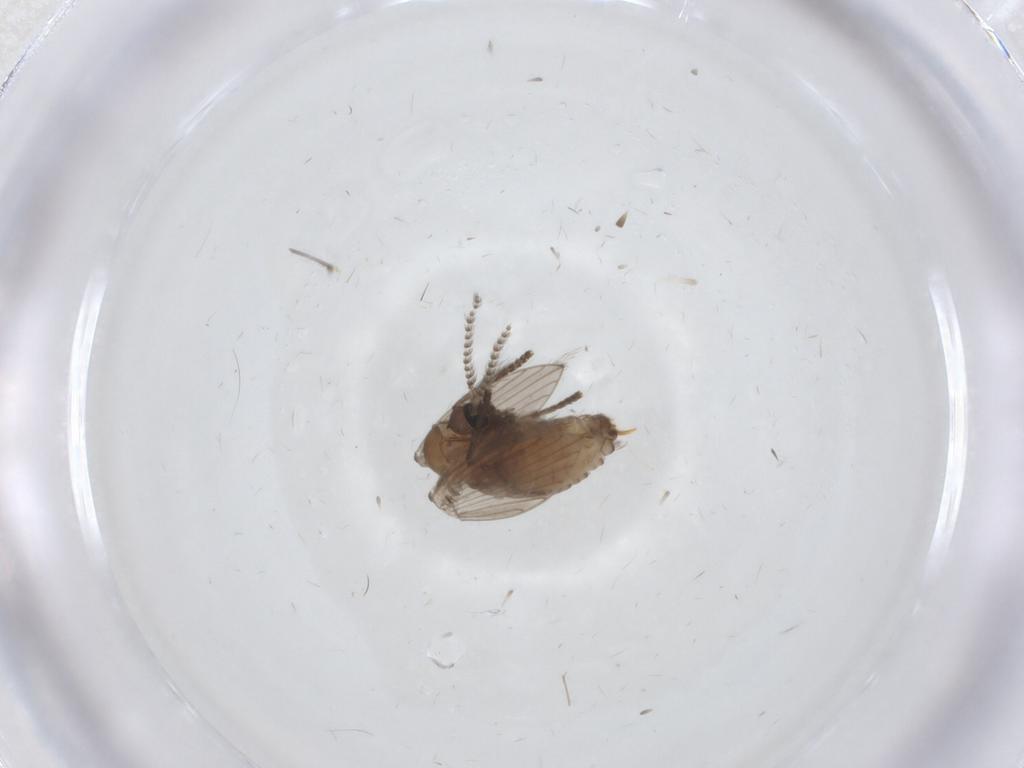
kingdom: Animalia
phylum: Arthropoda
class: Insecta
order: Diptera
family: Psychodidae
